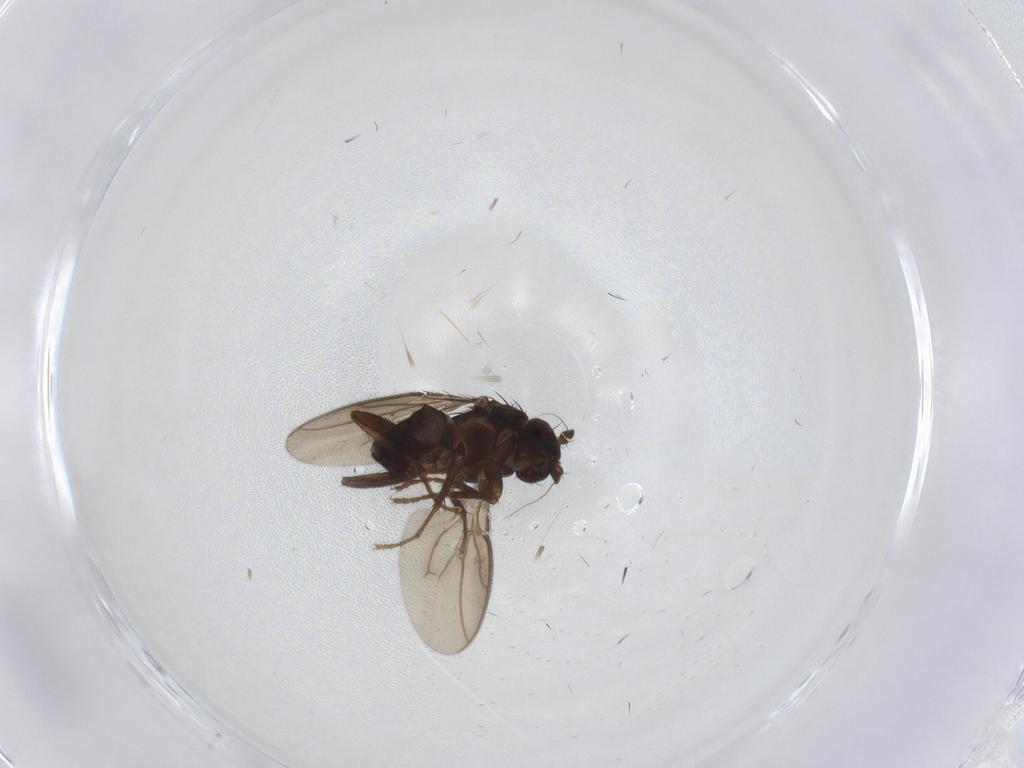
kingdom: Animalia
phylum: Arthropoda
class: Insecta
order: Diptera
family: Sphaeroceridae
